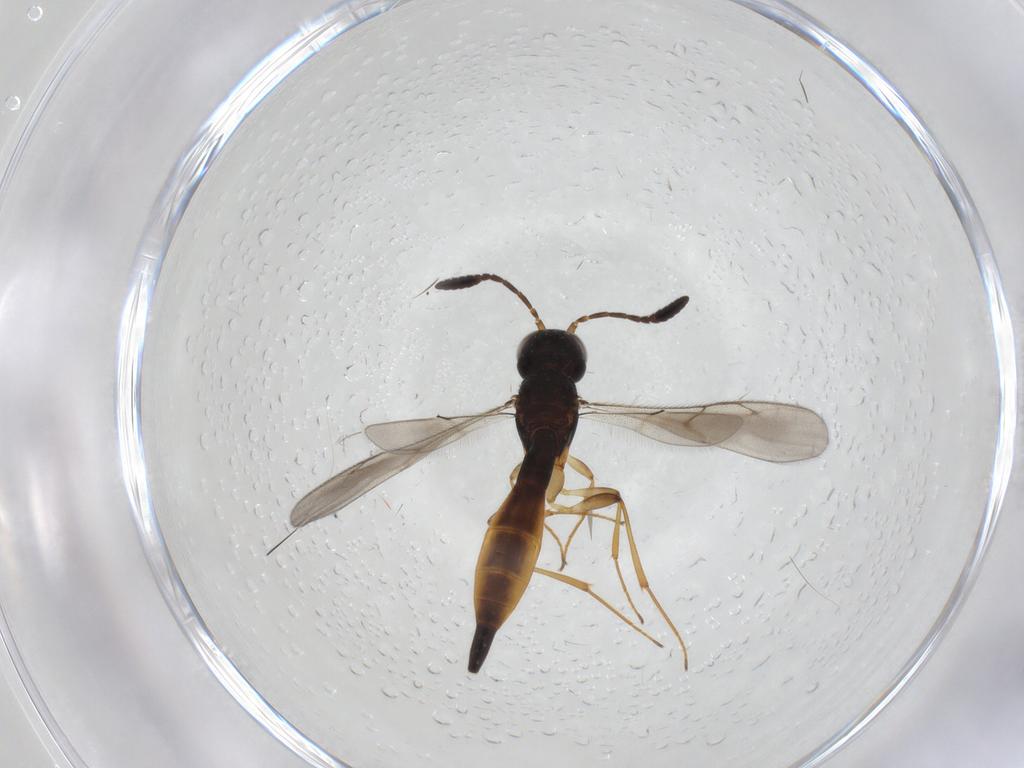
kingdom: Animalia
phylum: Arthropoda
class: Insecta
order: Hymenoptera
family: Scelionidae
